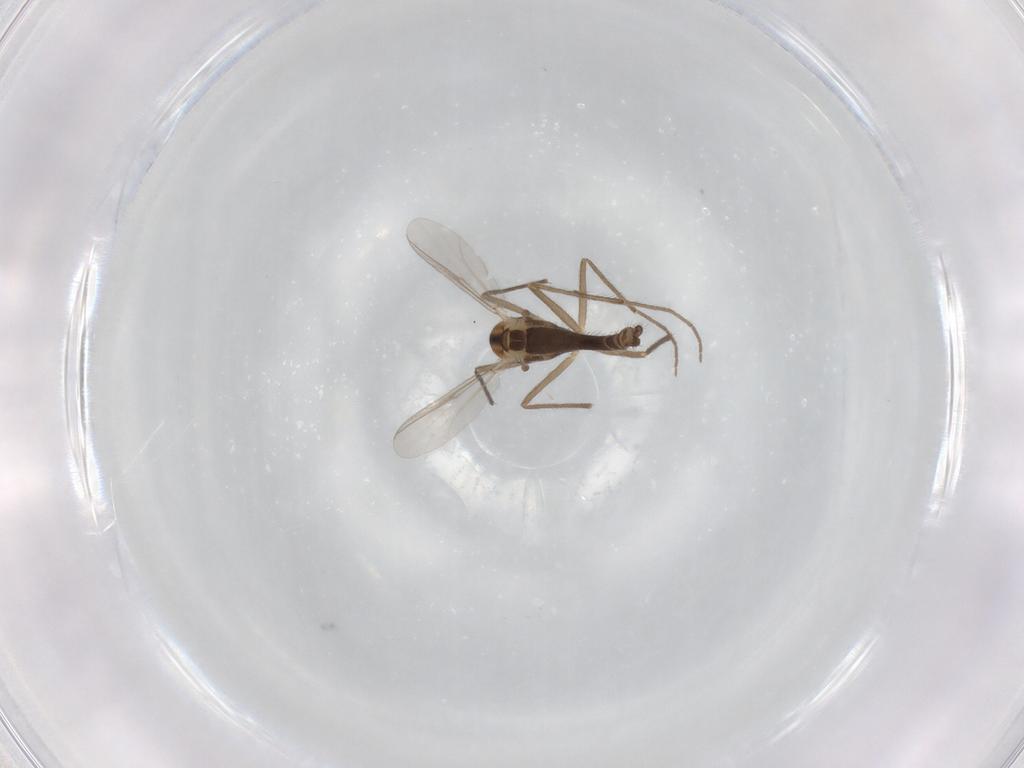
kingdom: Animalia
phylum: Arthropoda
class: Insecta
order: Diptera
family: Chironomidae
